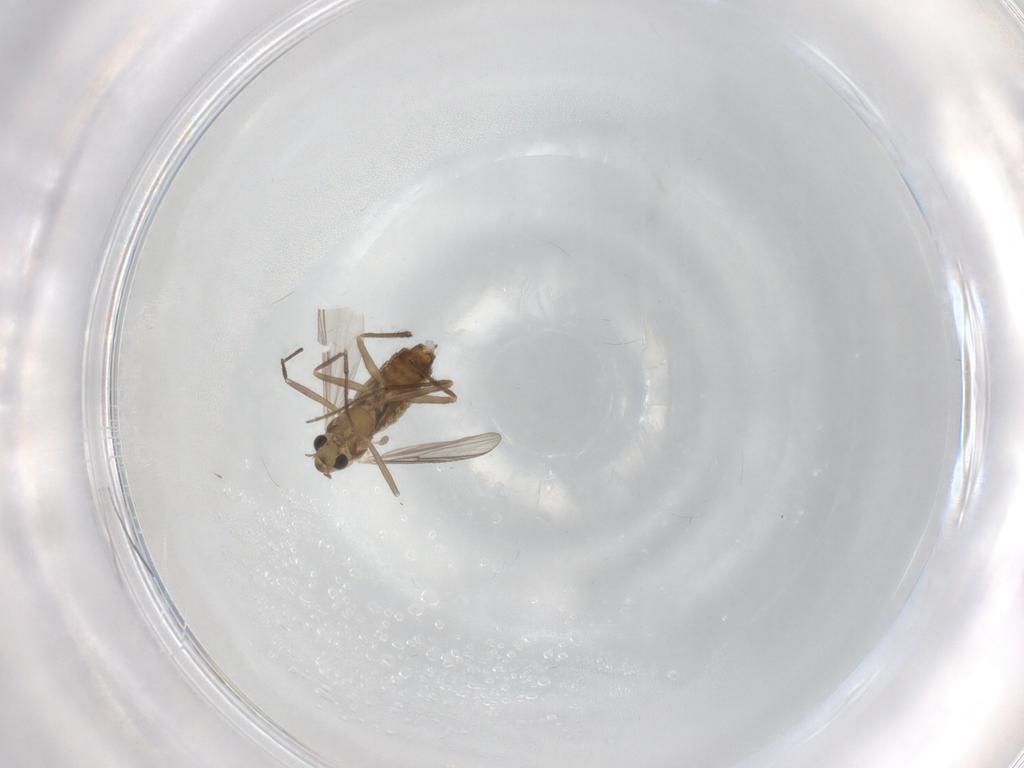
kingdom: Animalia
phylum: Arthropoda
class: Insecta
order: Diptera
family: Chironomidae
